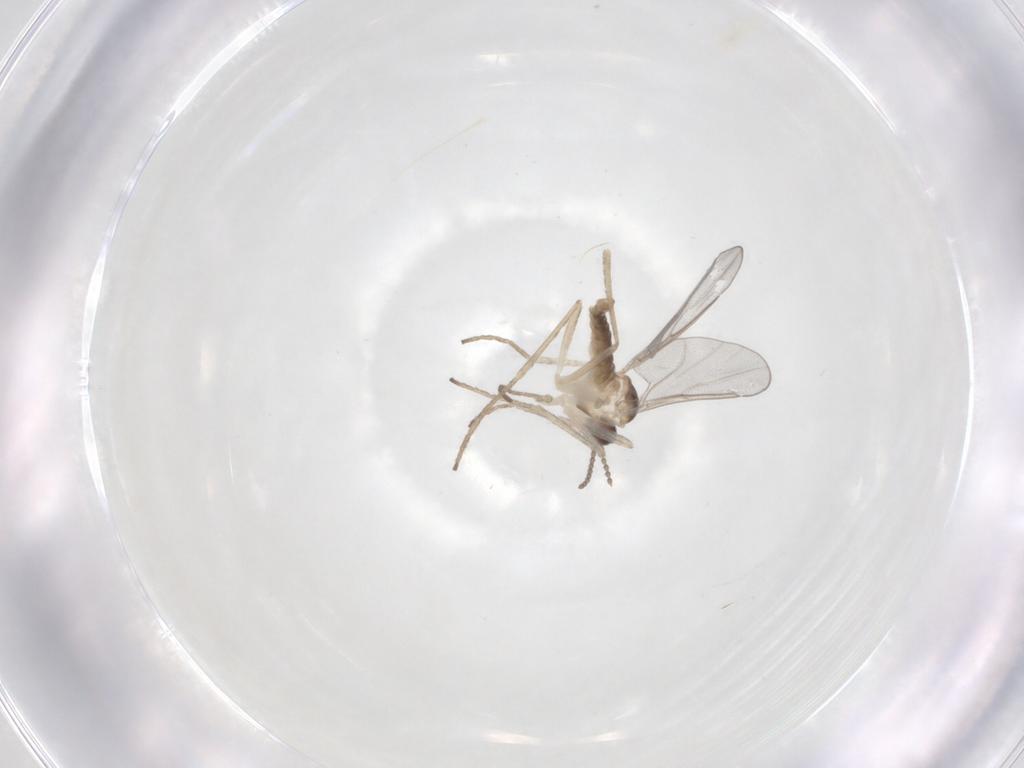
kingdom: Animalia
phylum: Arthropoda
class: Insecta
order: Diptera
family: Cecidomyiidae
